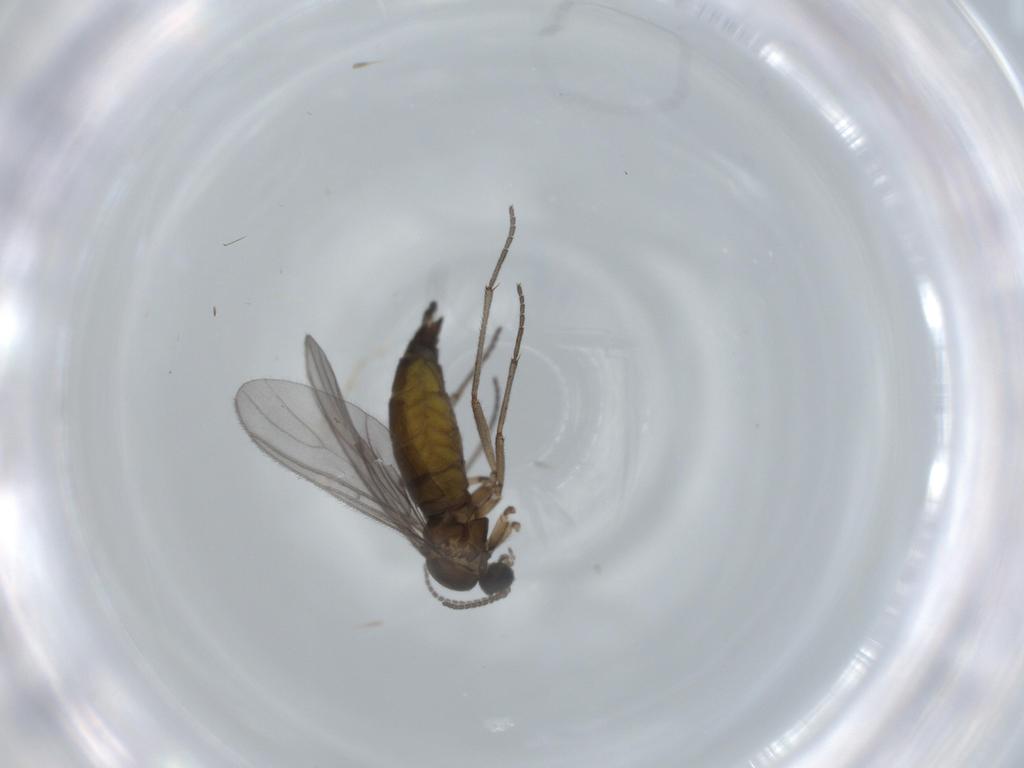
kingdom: Animalia
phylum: Arthropoda
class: Insecta
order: Diptera
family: Sciaridae
